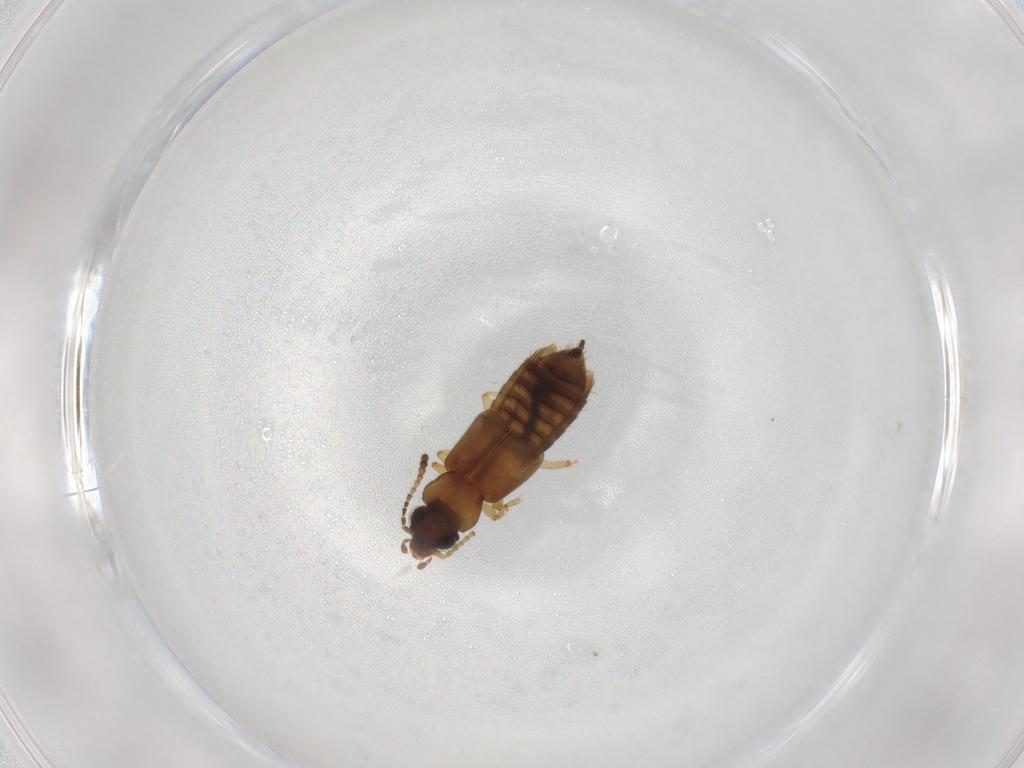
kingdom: Animalia
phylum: Arthropoda
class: Insecta
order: Coleoptera
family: Staphylinidae
